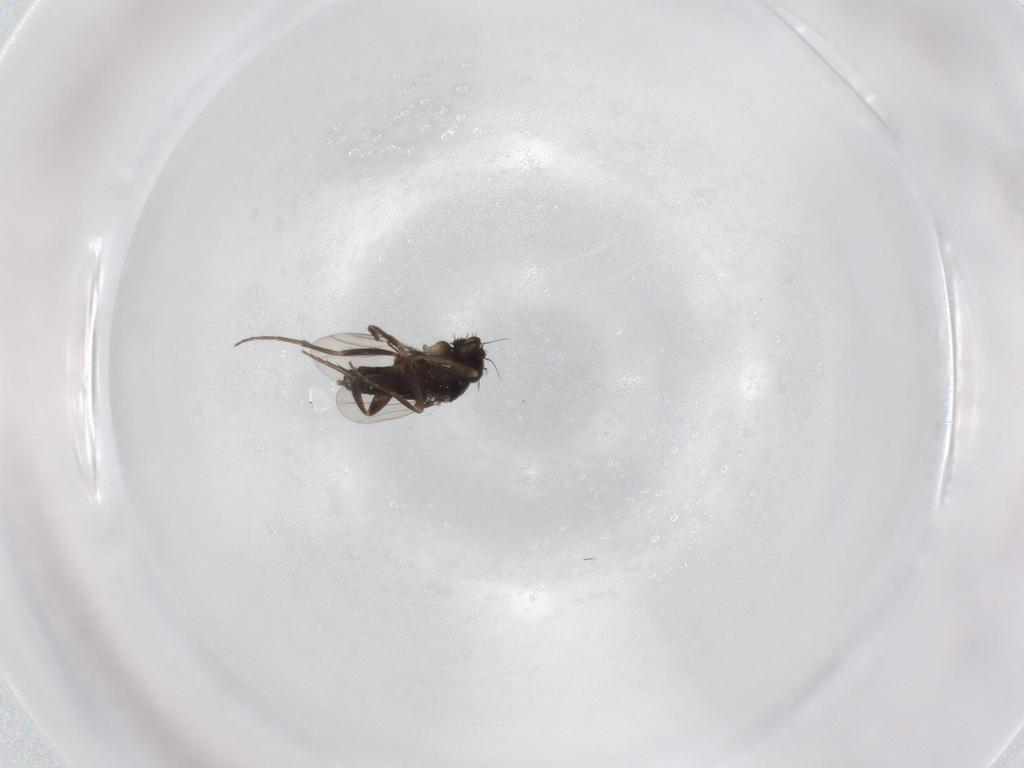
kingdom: Animalia
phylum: Arthropoda
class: Insecta
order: Diptera
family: Phoridae
